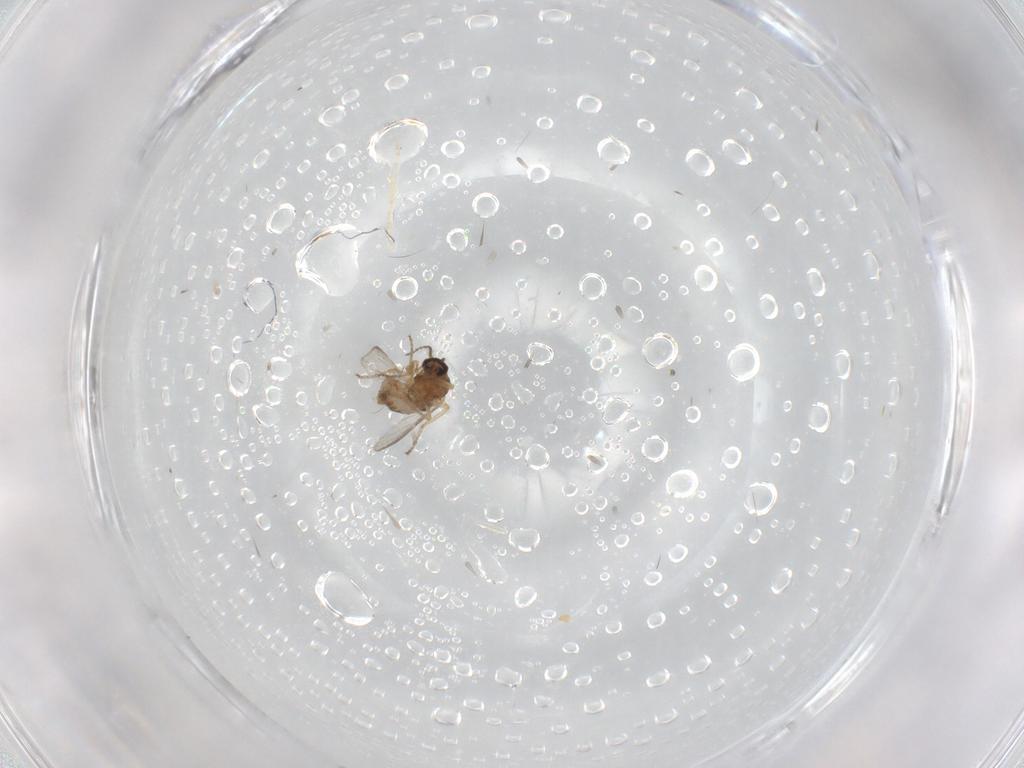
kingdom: Animalia
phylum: Arthropoda
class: Insecta
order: Diptera
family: Ceratopogonidae
